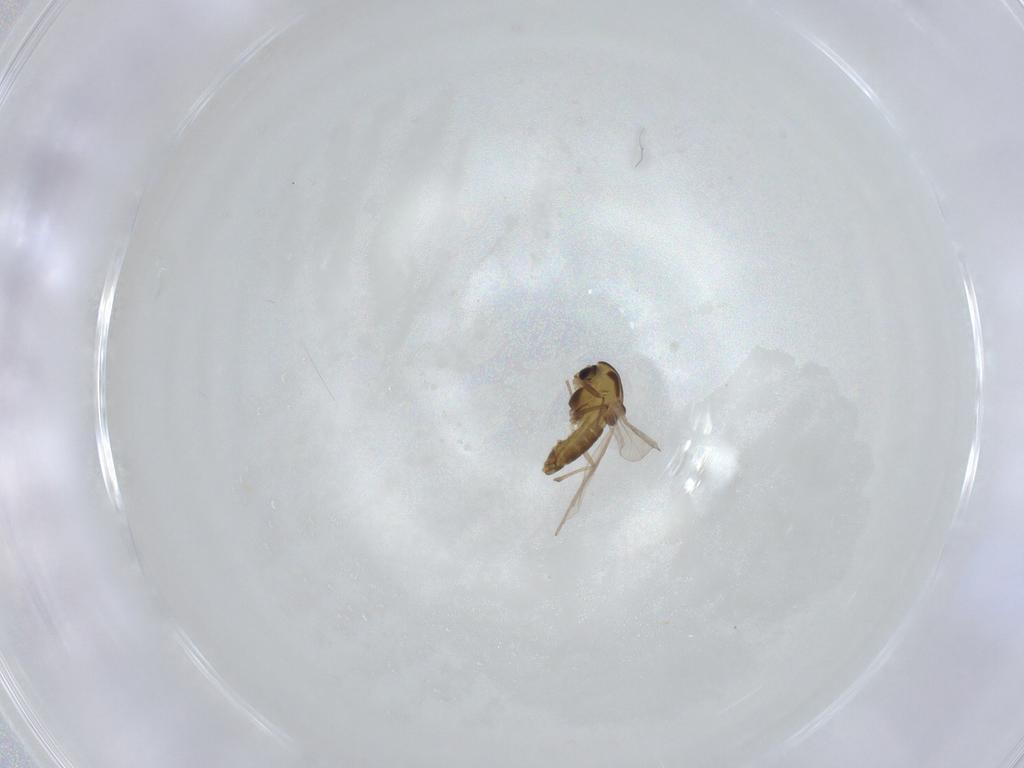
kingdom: Animalia
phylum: Arthropoda
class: Insecta
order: Diptera
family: Chironomidae
